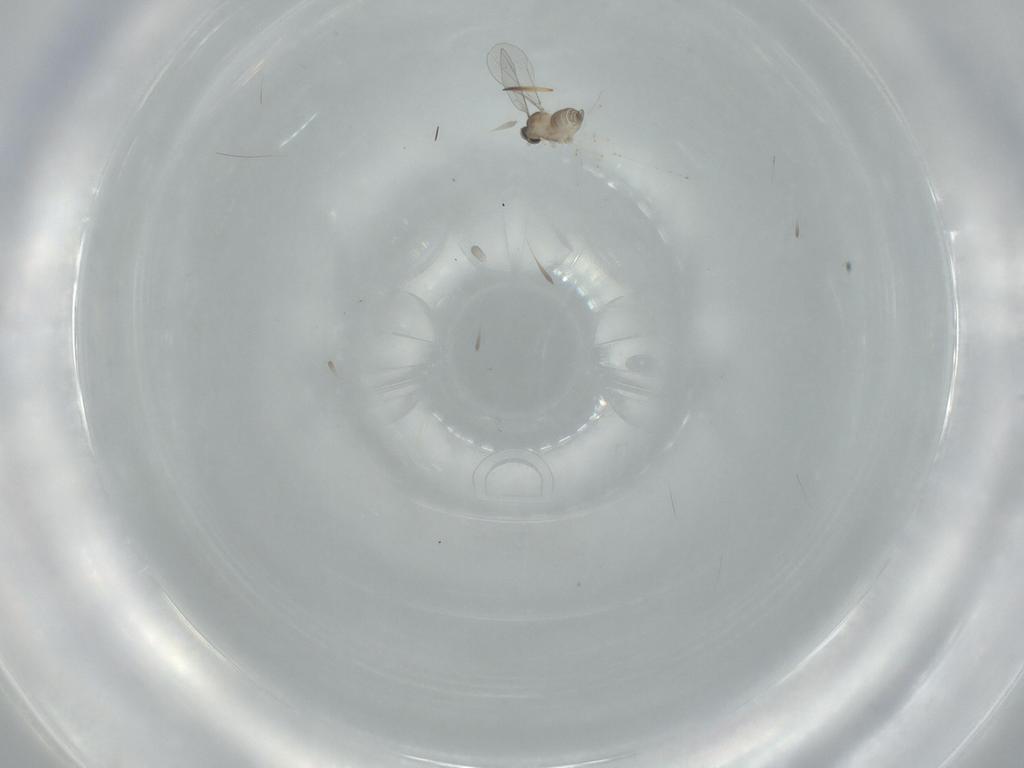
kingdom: Animalia
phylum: Arthropoda
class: Insecta
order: Diptera
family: Cecidomyiidae
